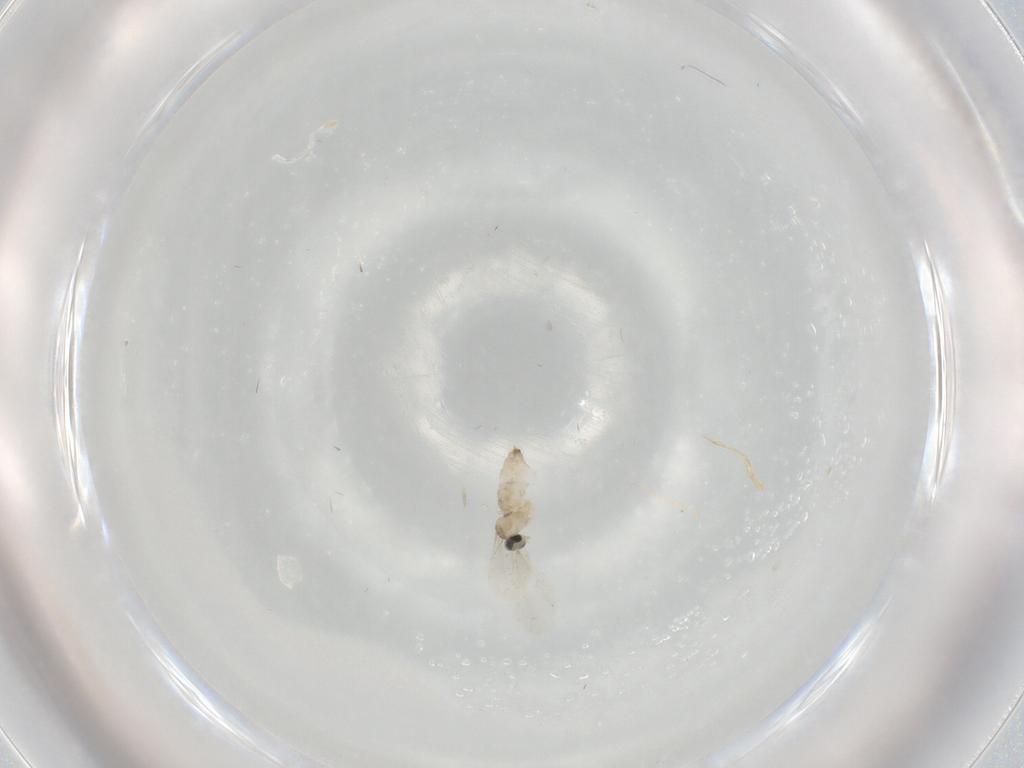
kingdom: Animalia
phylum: Arthropoda
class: Insecta
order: Diptera
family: Cecidomyiidae
